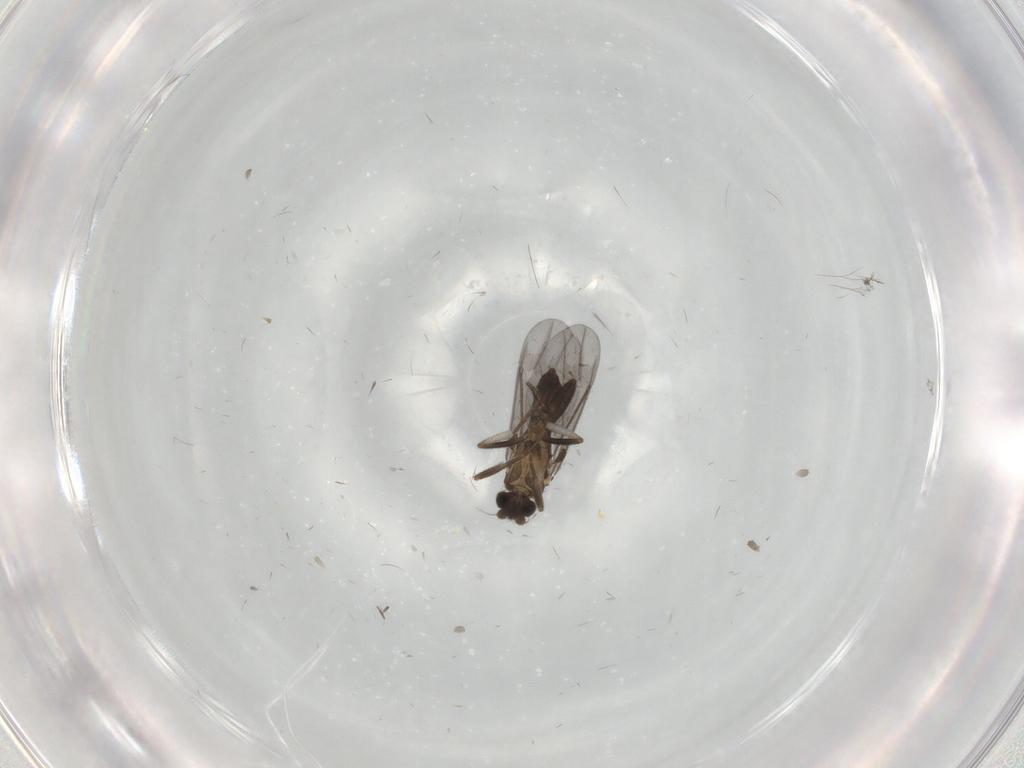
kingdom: Animalia
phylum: Arthropoda
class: Insecta
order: Diptera
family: Phoridae
